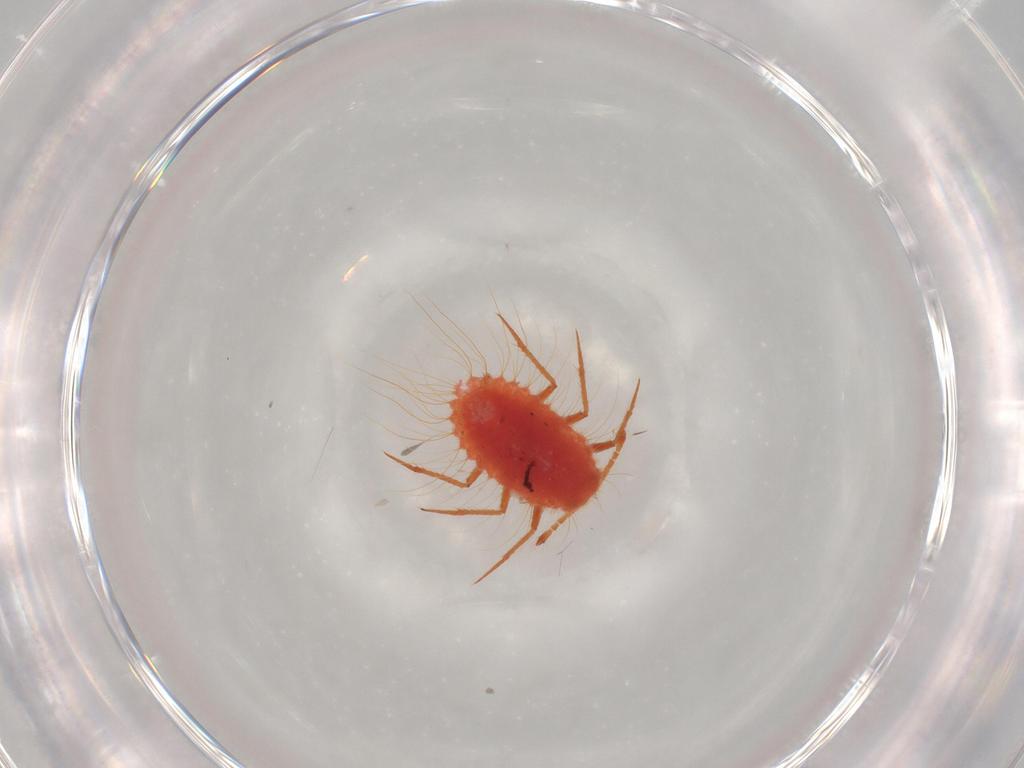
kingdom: Animalia
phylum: Arthropoda
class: Insecta
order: Hemiptera
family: Monophlebidae
